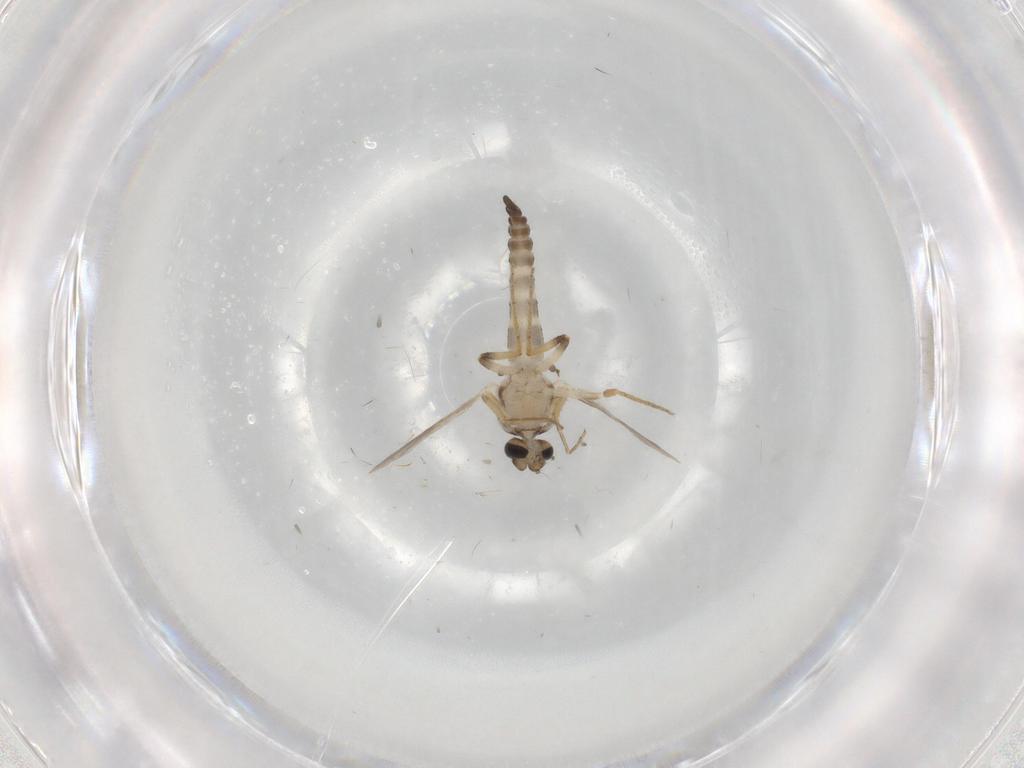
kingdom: Animalia
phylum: Arthropoda
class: Insecta
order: Diptera
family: Ceratopogonidae
